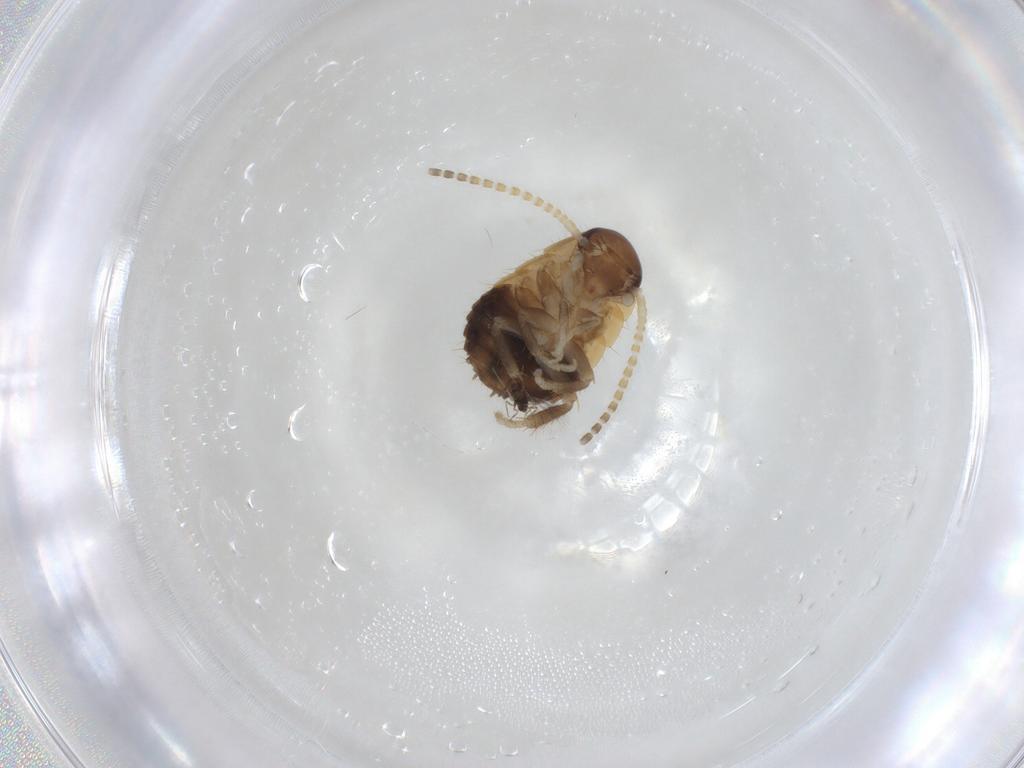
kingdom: Animalia
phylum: Arthropoda
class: Insecta
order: Blattodea
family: Ectobiidae
